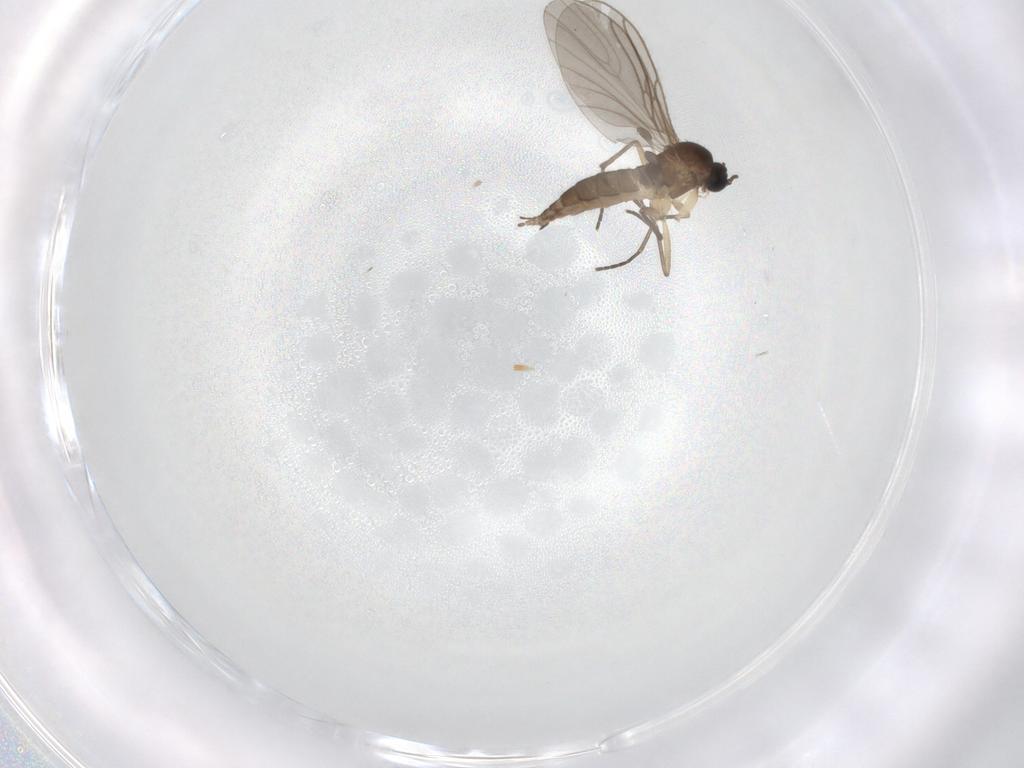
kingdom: Animalia
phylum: Arthropoda
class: Insecta
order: Diptera
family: Sciaridae
